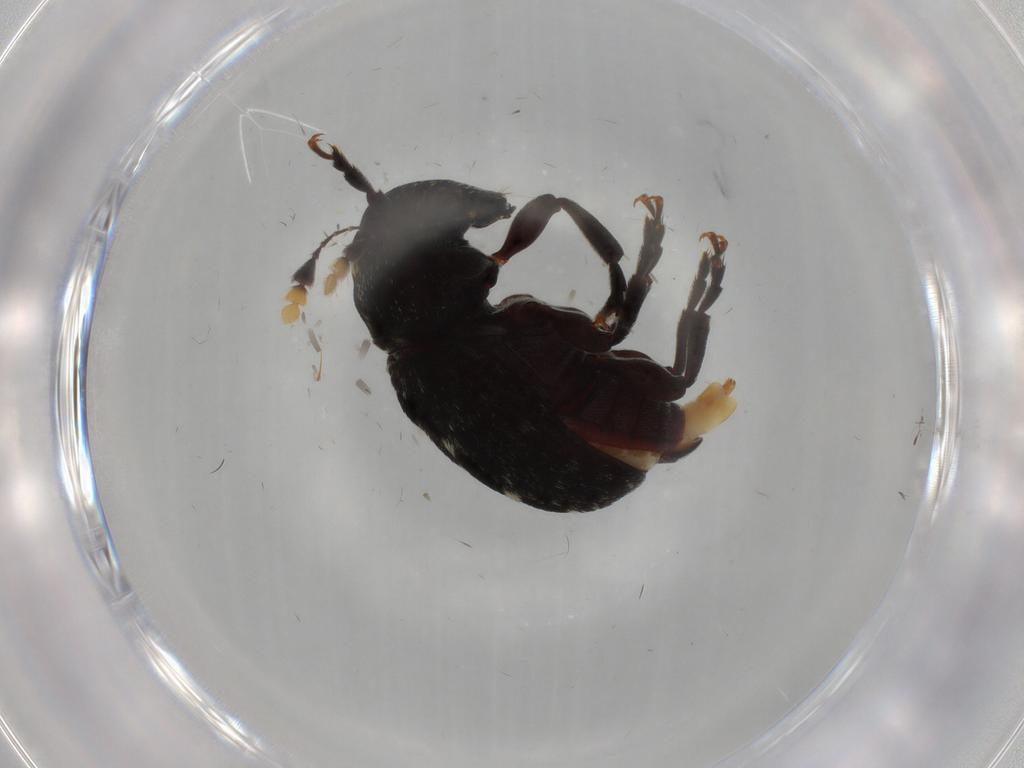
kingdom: Animalia
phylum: Arthropoda
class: Insecta
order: Coleoptera
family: Anthribidae
